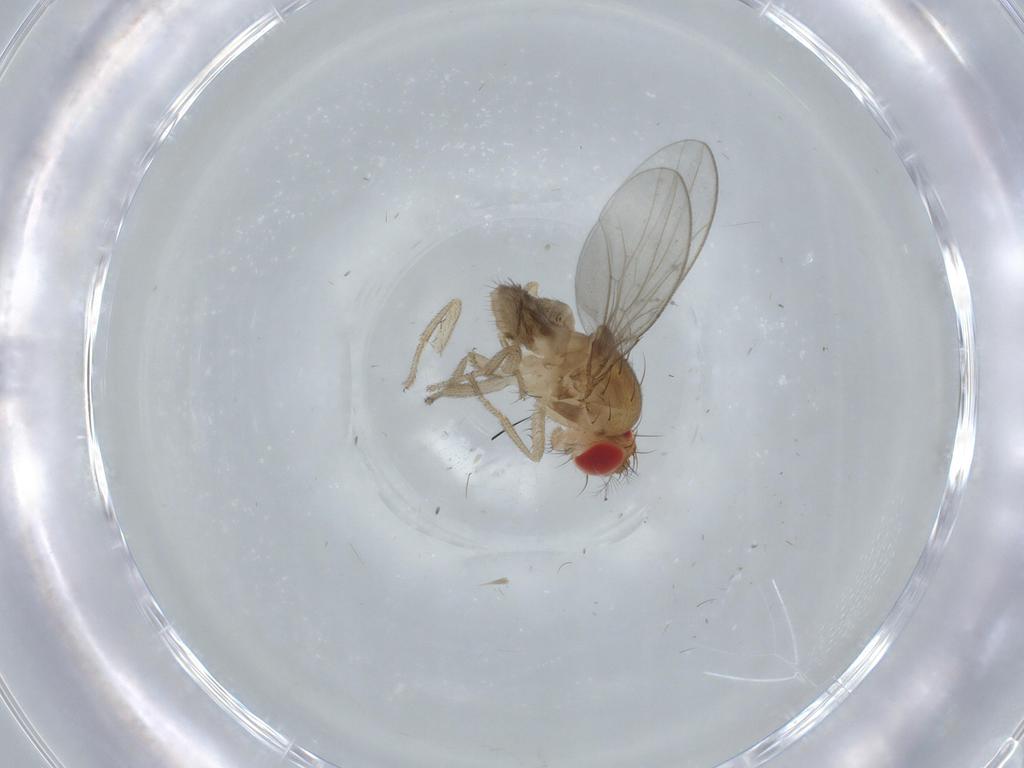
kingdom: Animalia
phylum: Arthropoda
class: Insecta
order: Diptera
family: Drosophilidae
